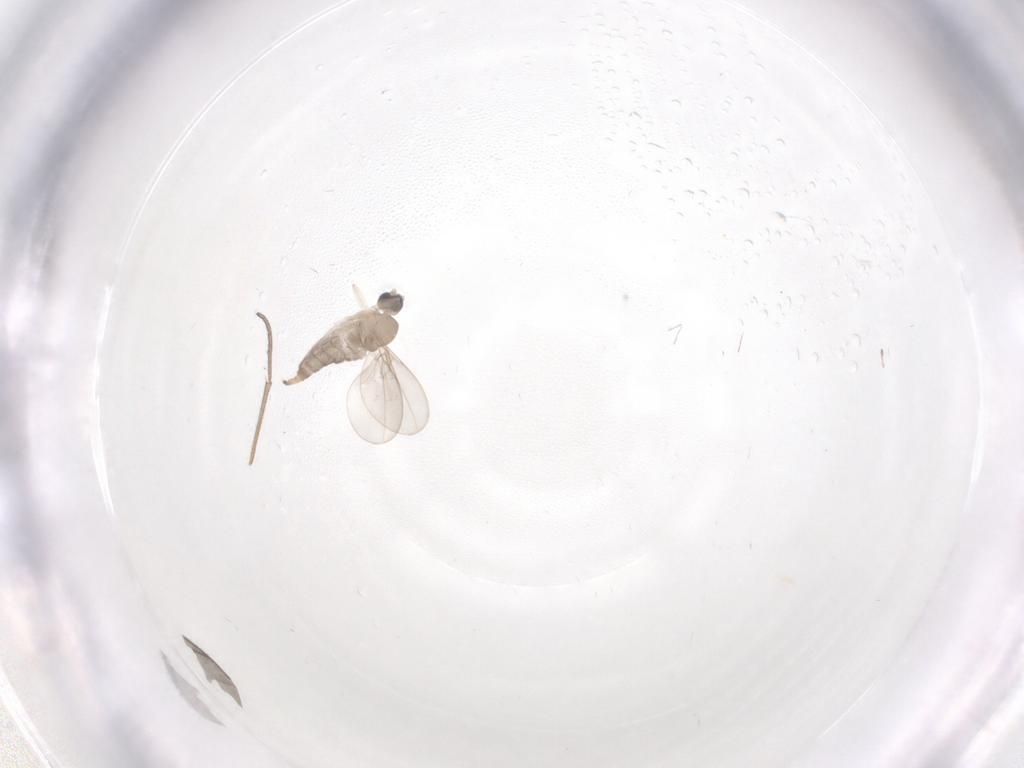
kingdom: Animalia
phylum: Arthropoda
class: Insecta
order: Diptera
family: Cecidomyiidae
